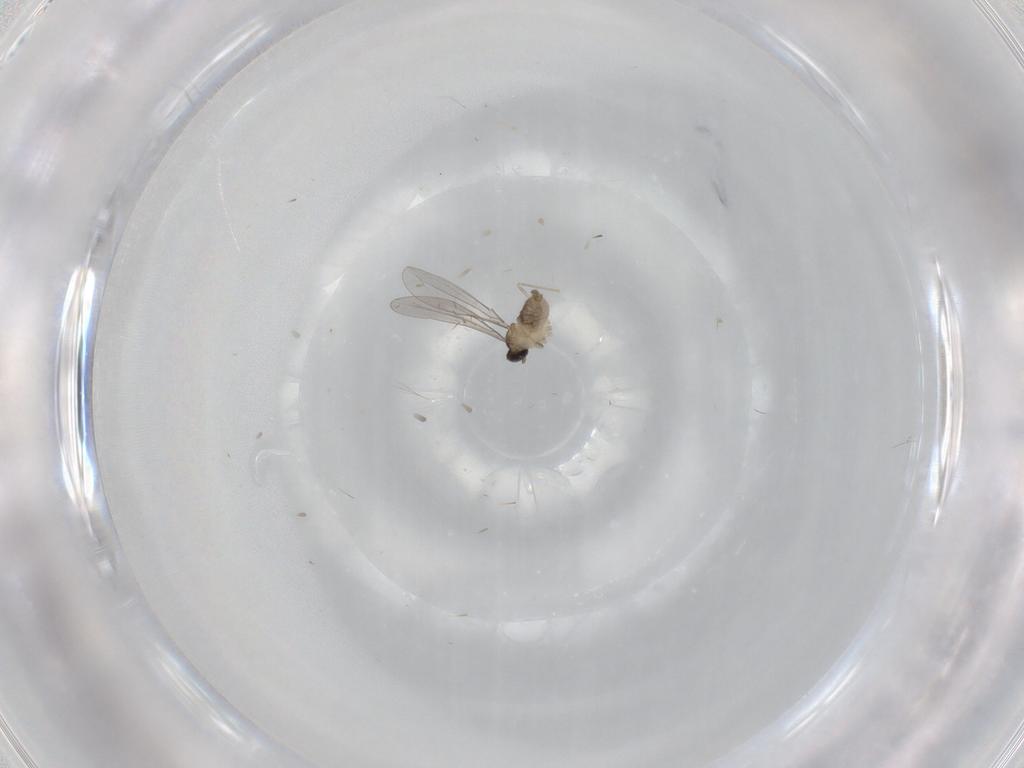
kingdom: Animalia
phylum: Arthropoda
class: Insecta
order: Diptera
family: Cecidomyiidae
